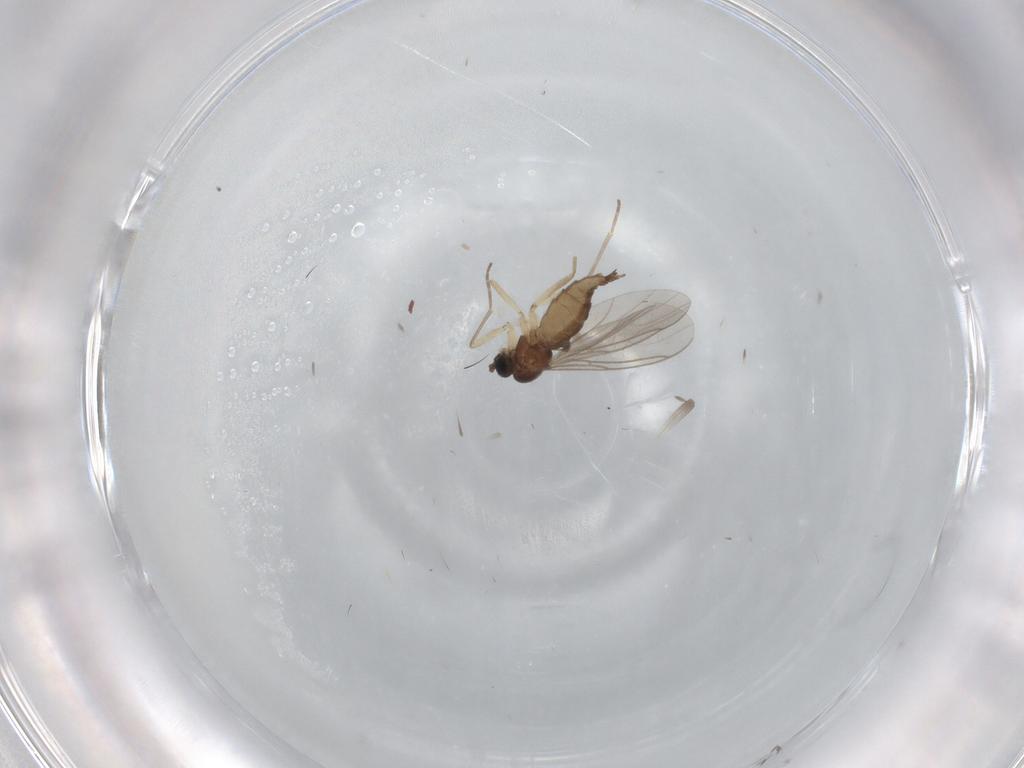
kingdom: Animalia
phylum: Arthropoda
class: Insecta
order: Diptera
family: Sciaridae
